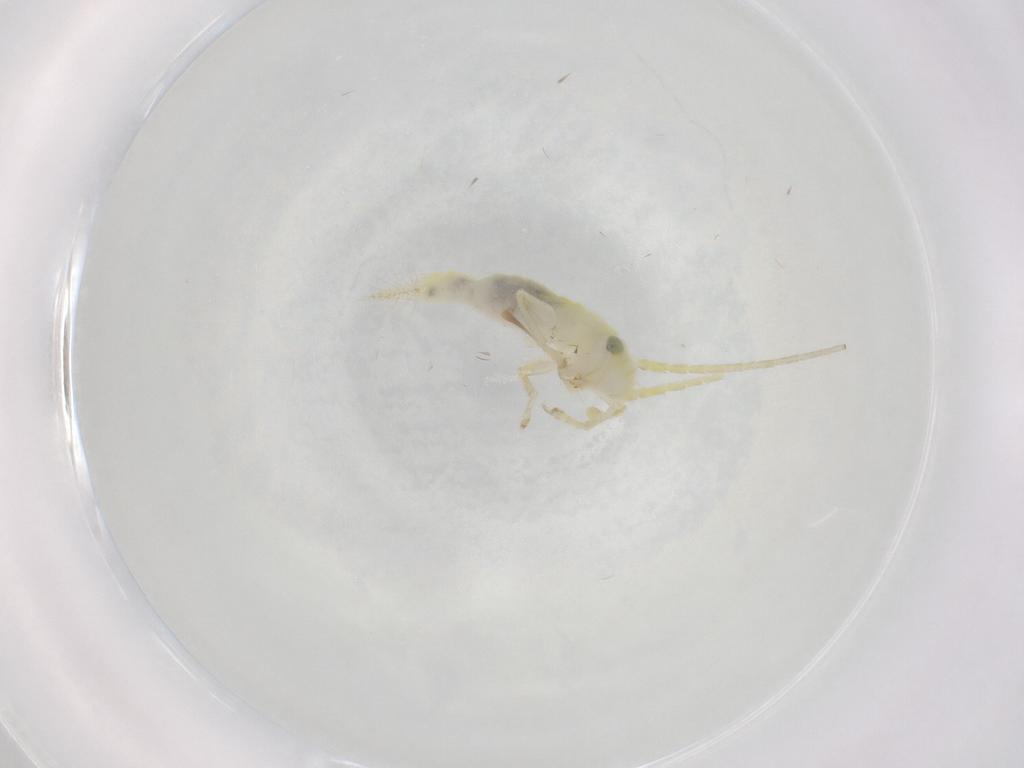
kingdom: Animalia
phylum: Arthropoda
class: Insecta
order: Orthoptera
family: Trigonidiidae
